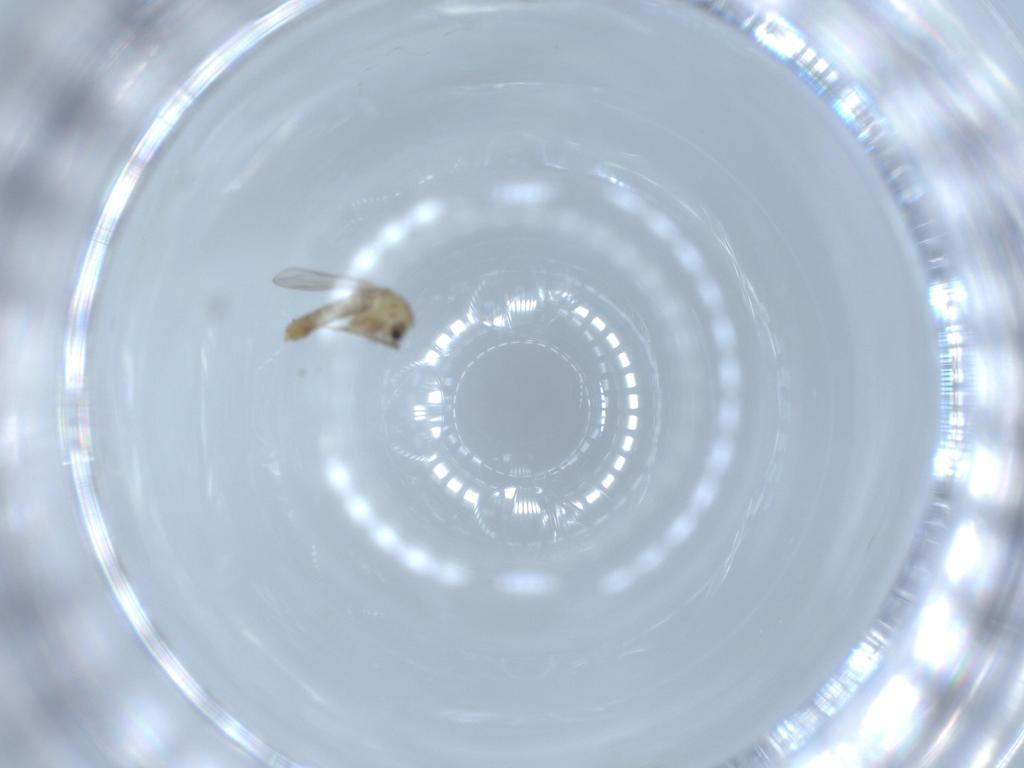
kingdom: Animalia
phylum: Arthropoda
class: Insecta
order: Diptera
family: Chironomidae
